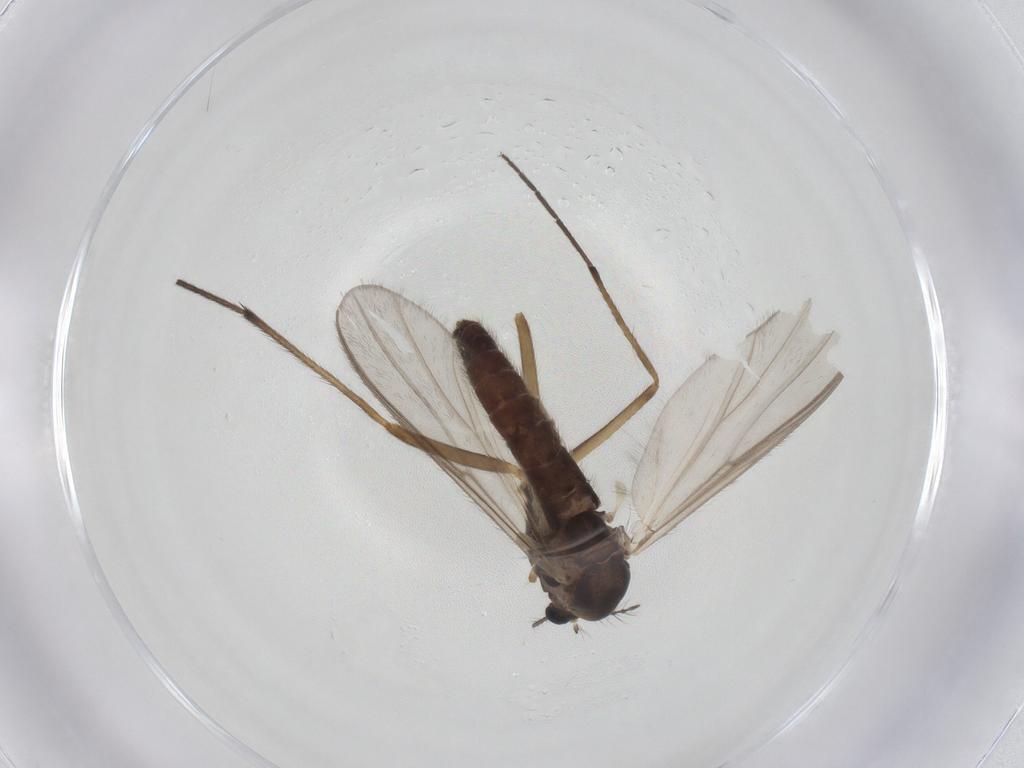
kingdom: Animalia
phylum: Arthropoda
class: Insecta
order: Diptera
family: Chironomidae
